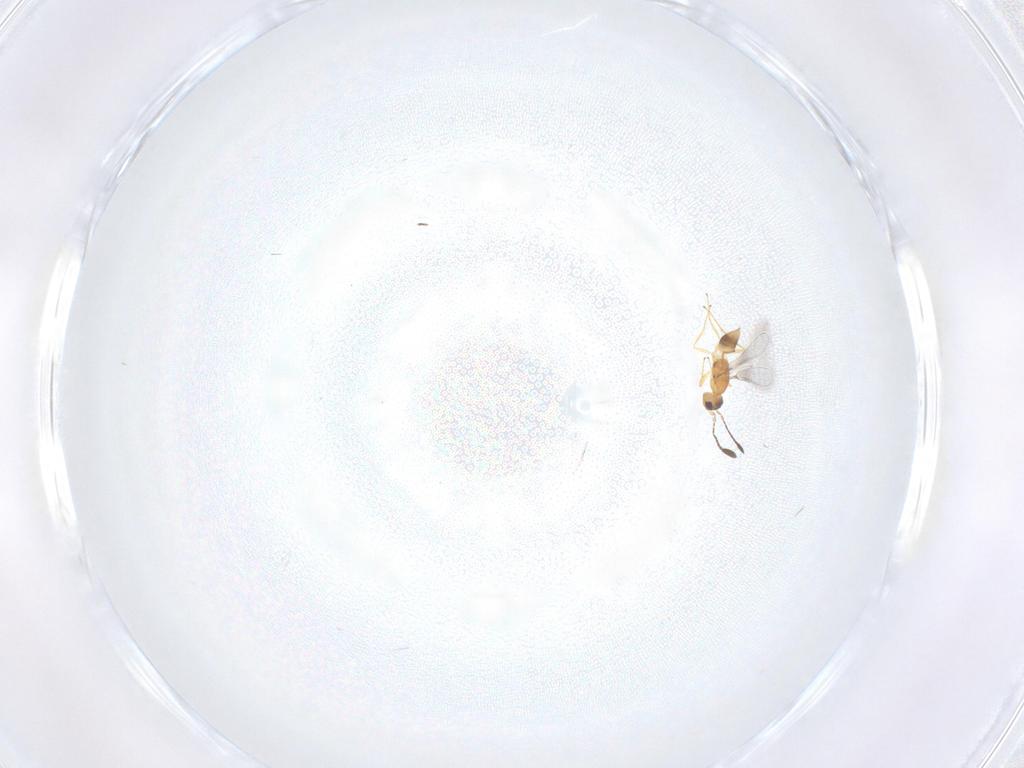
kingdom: Animalia
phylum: Arthropoda
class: Insecta
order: Hymenoptera
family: Mymaridae
